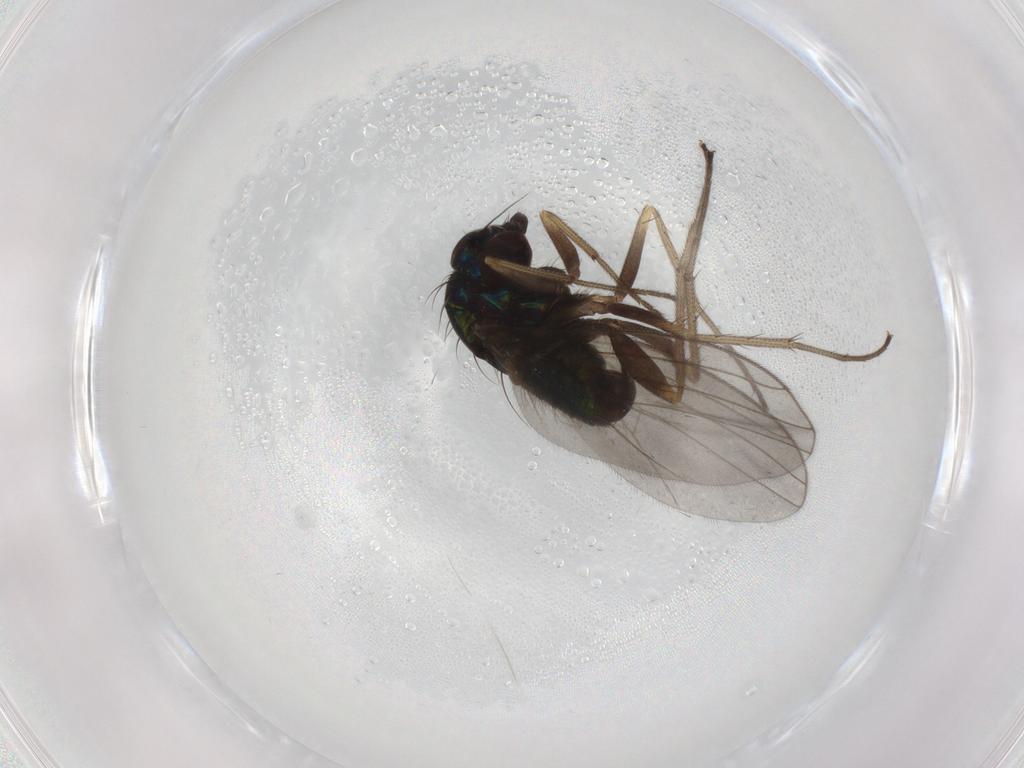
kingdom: Animalia
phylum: Arthropoda
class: Insecta
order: Diptera
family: Dolichopodidae
